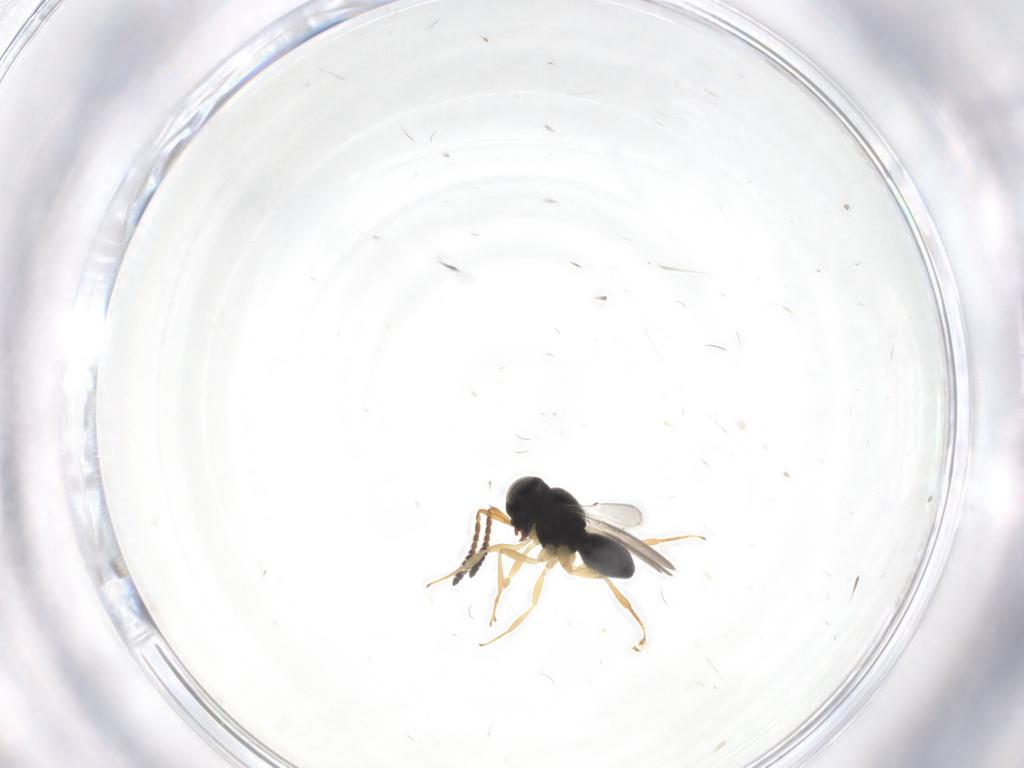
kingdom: Animalia
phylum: Arthropoda
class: Insecta
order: Hymenoptera
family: Scelionidae
